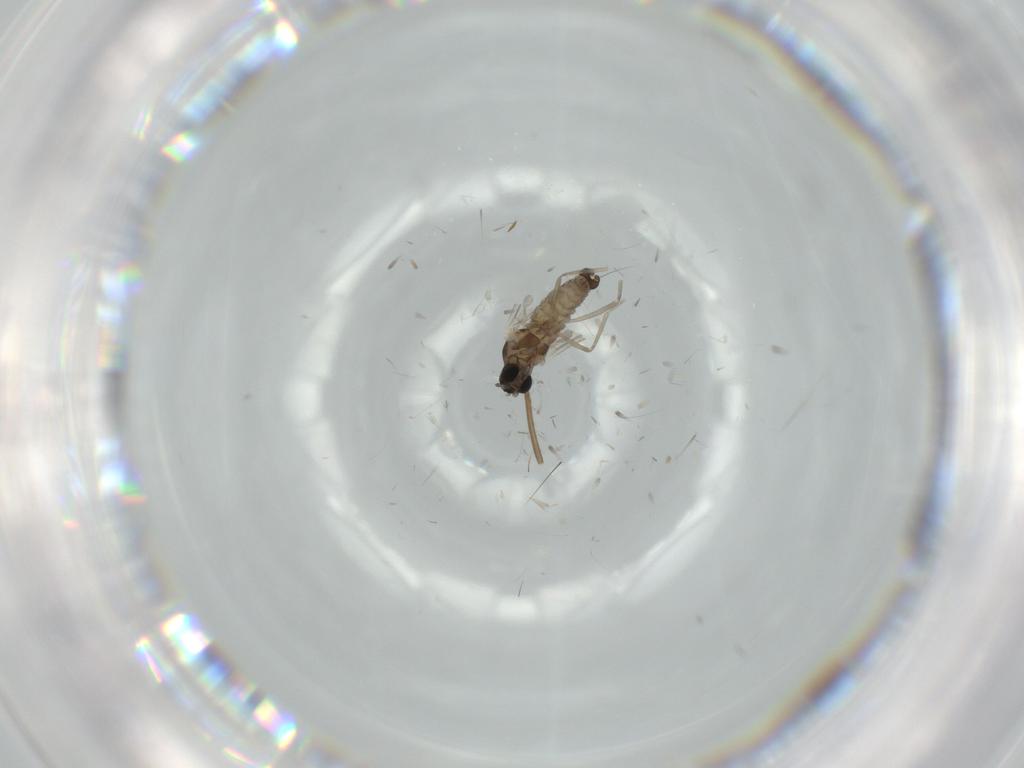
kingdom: Animalia
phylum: Arthropoda
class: Insecta
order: Diptera
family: Cecidomyiidae
